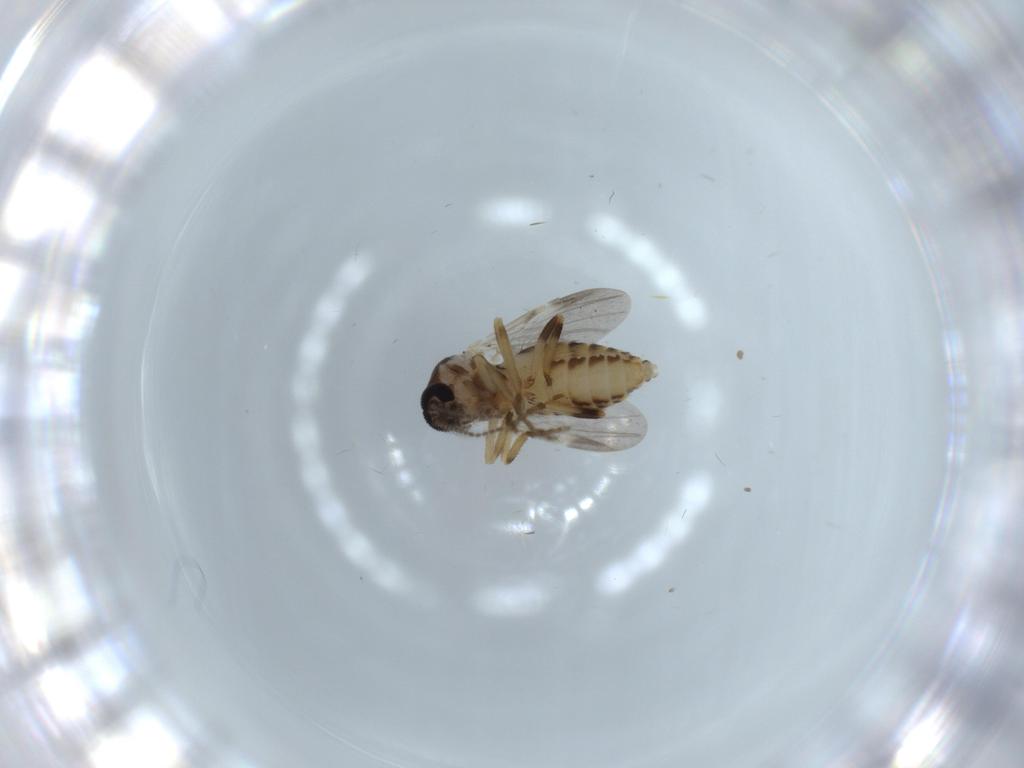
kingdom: Animalia
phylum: Arthropoda
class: Insecta
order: Diptera
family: Ceratopogonidae
